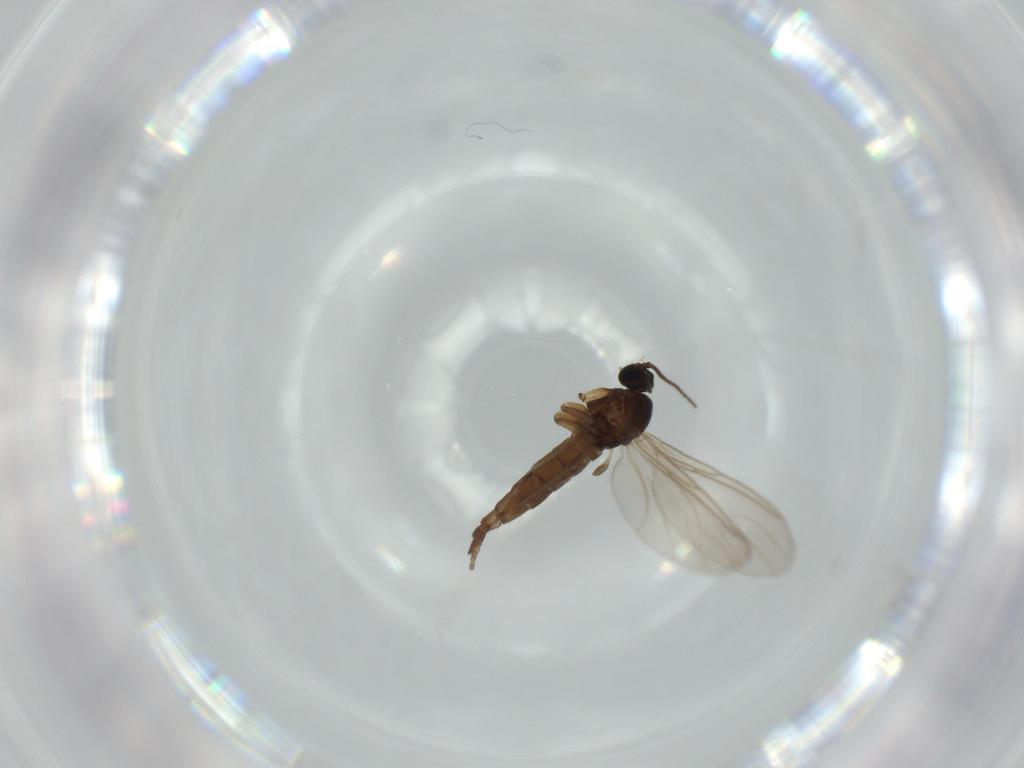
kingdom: Animalia
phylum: Arthropoda
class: Insecta
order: Diptera
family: Sciaridae
